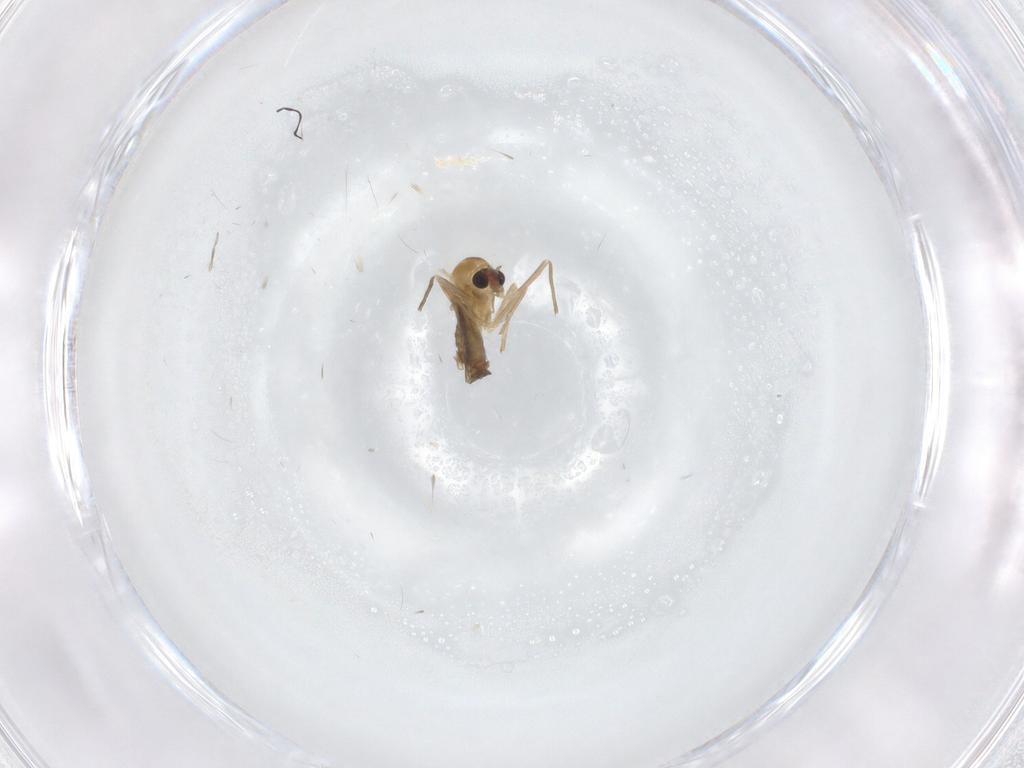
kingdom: Animalia
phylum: Arthropoda
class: Insecta
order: Diptera
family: Chironomidae
